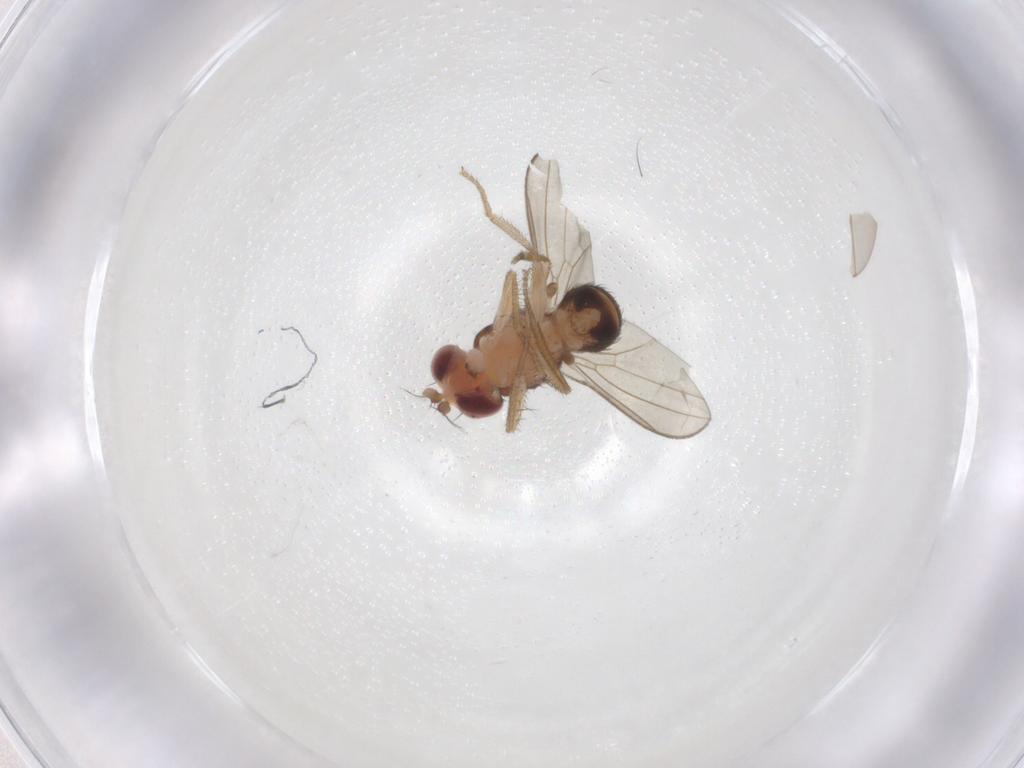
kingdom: Animalia
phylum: Arthropoda
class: Insecta
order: Diptera
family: Drosophilidae
